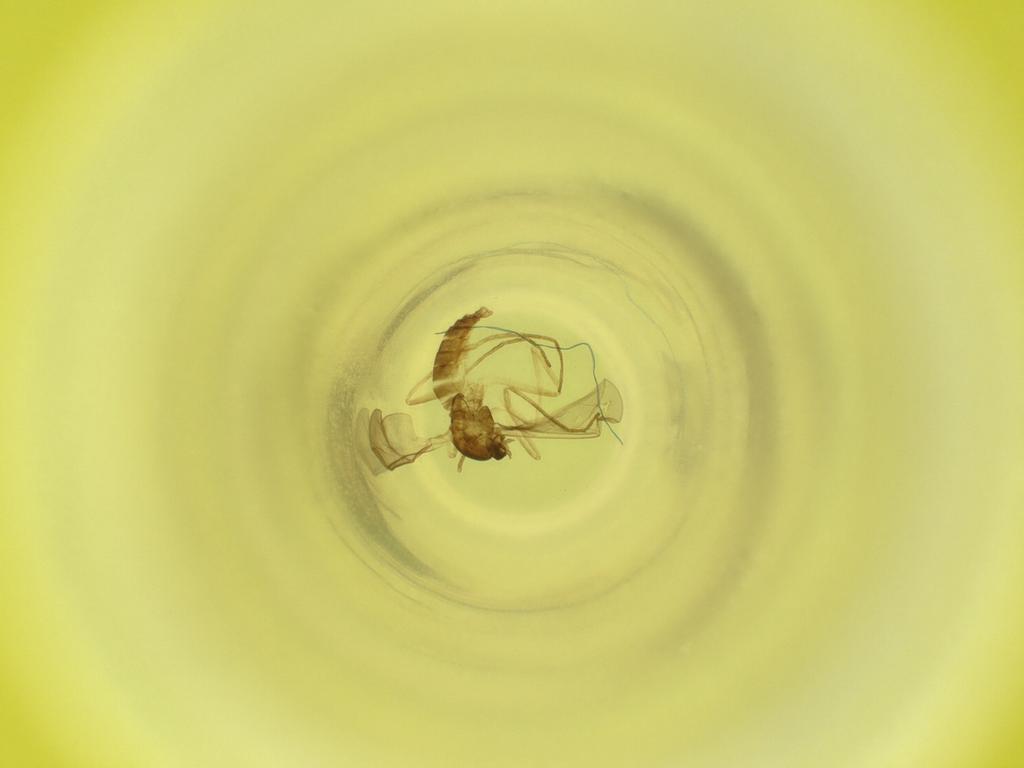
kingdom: Animalia
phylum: Arthropoda
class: Insecta
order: Diptera
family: Cecidomyiidae
